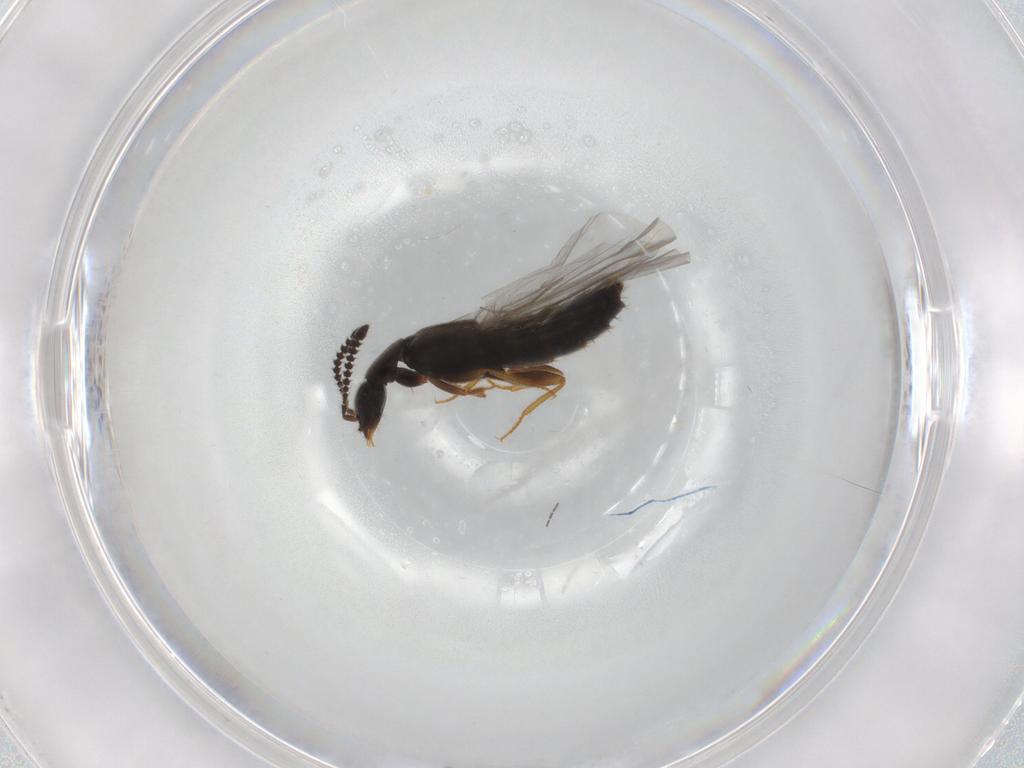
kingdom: Animalia
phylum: Arthropoda
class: Insecta
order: Coleoptera
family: Staphylinidae
